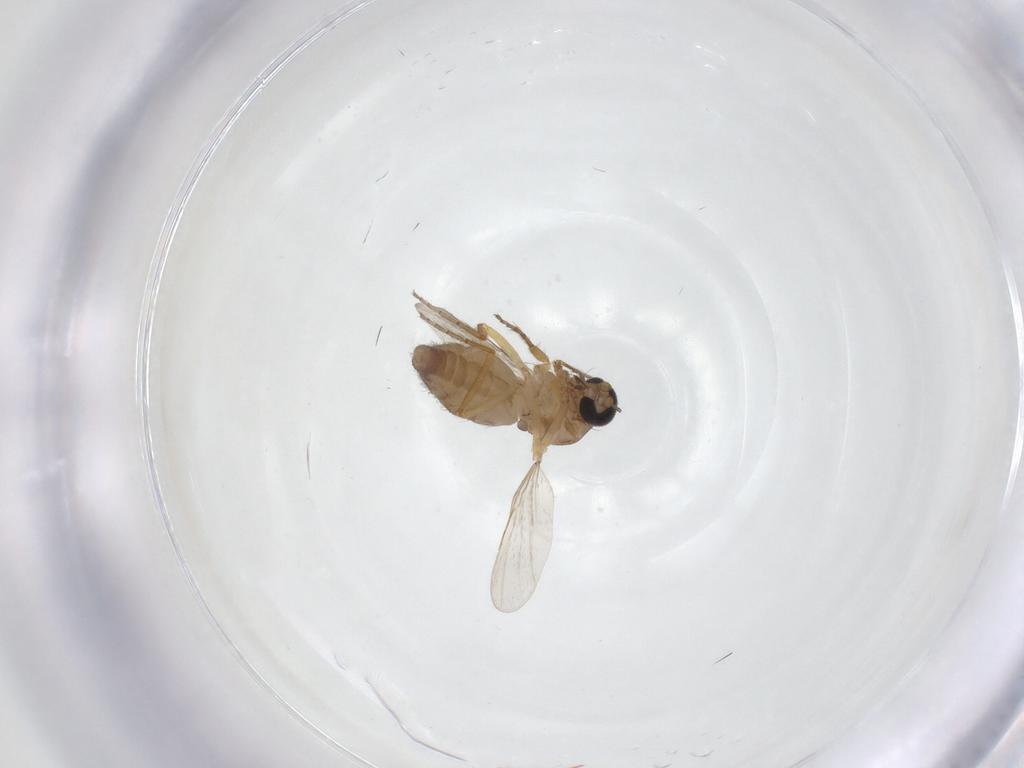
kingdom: Animalia
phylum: Arthropoda
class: Insecta
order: Diptera
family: Ceratopogonidae
